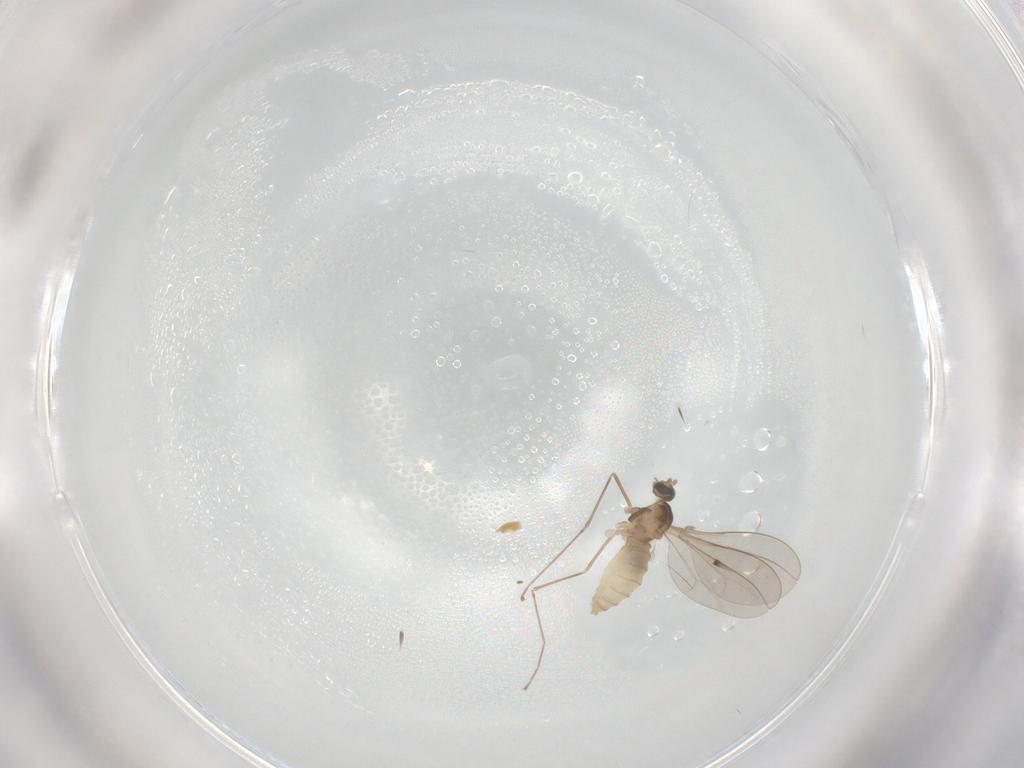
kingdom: Animalia
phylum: Arthropoda
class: Insecta
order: Diptera
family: Cecidomyiidae
